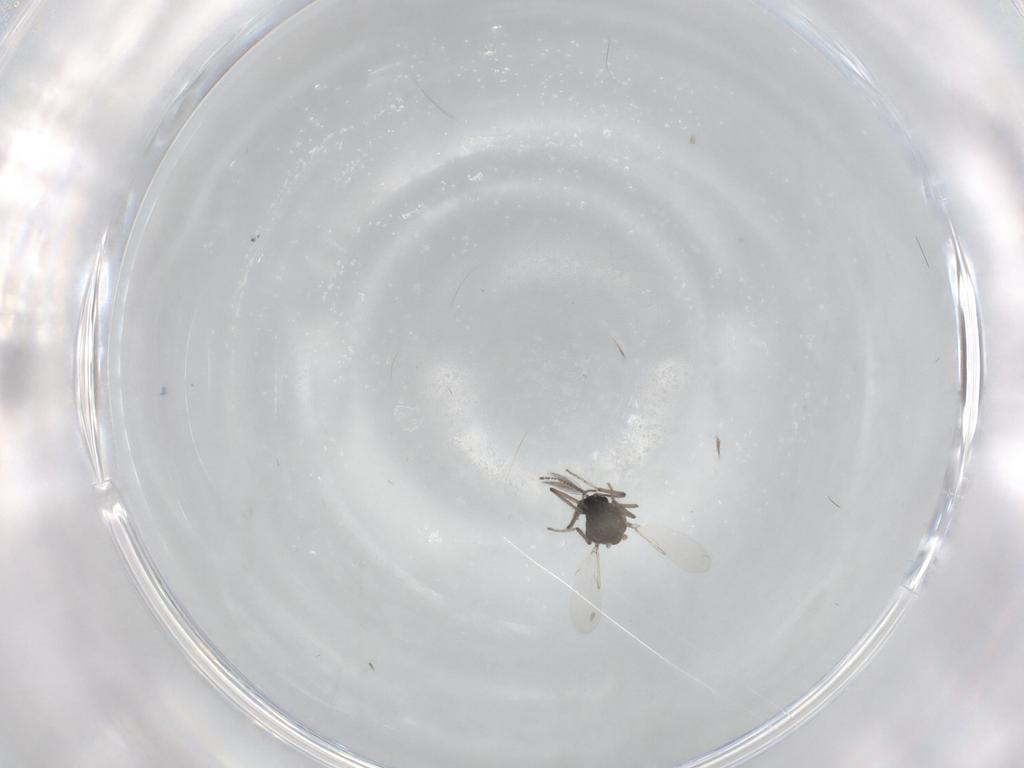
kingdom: Animalia
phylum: Arthropoda
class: Insecta
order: Diptera
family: Ceratopogonidae
